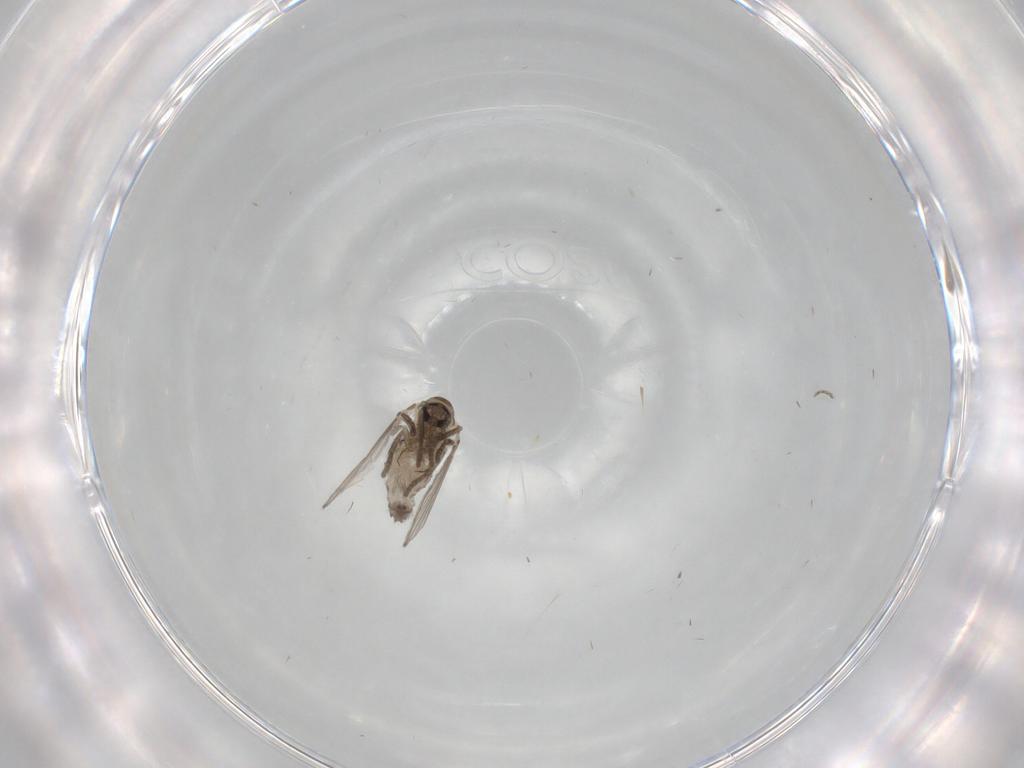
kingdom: Animalia
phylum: Arthropoda
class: Insecta
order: Diptera
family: Psychodidae
